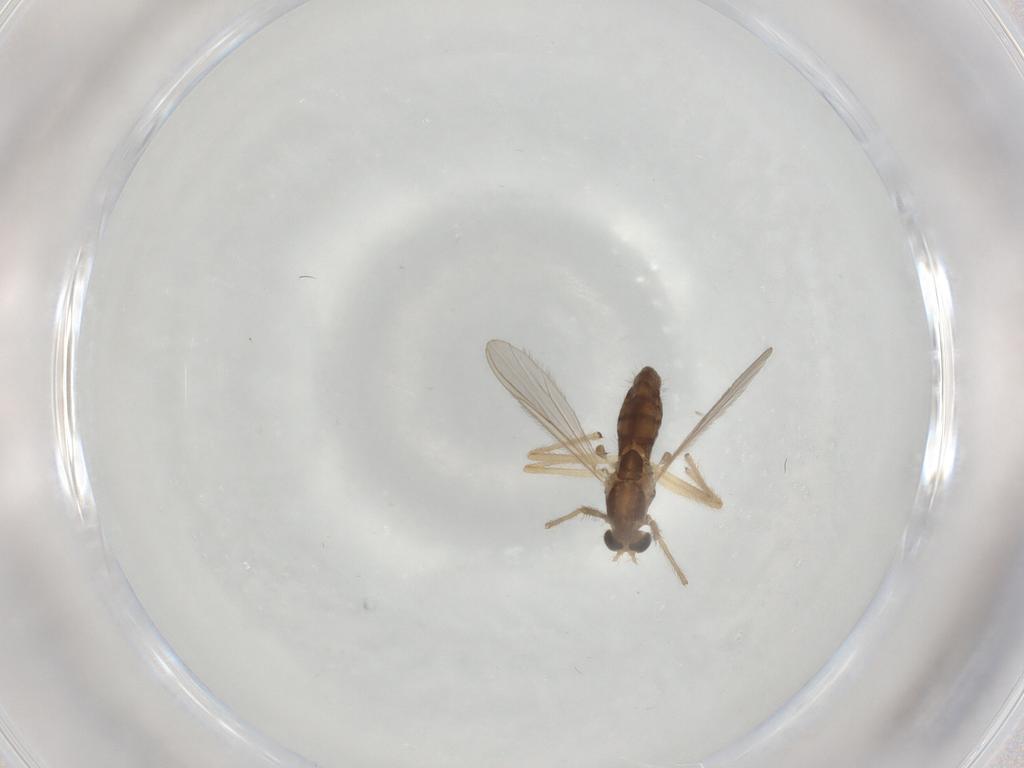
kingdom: Animalia
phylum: Arthropoda
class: Insecta
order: Diptera
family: Chironomidae
